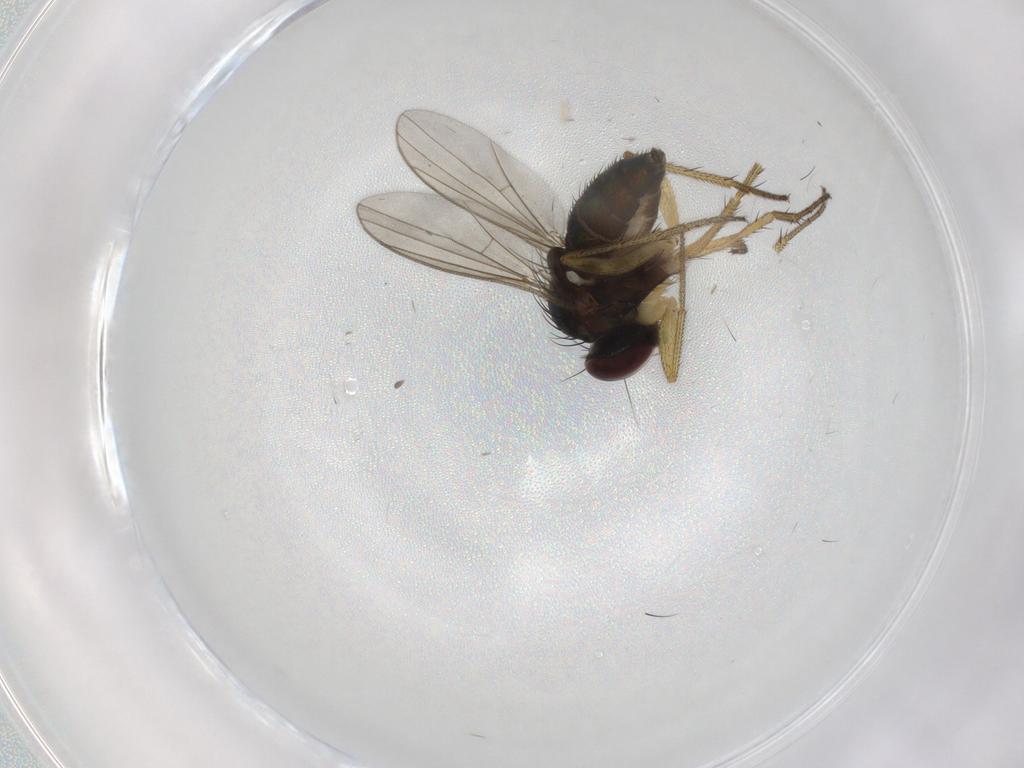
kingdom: Animalia
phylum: Arthropoda
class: Insecta
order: Diptera
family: Dolichopodidae
